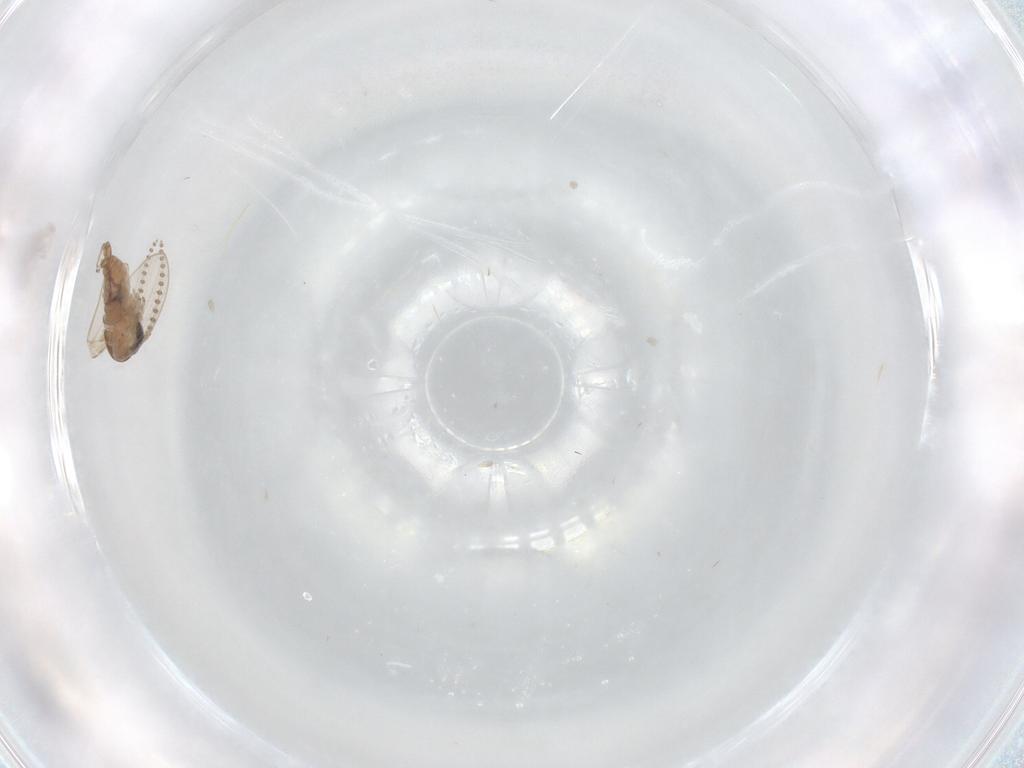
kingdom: Animalia
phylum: Arthropoda
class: Insecta
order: Diptera
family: Psychodidae
